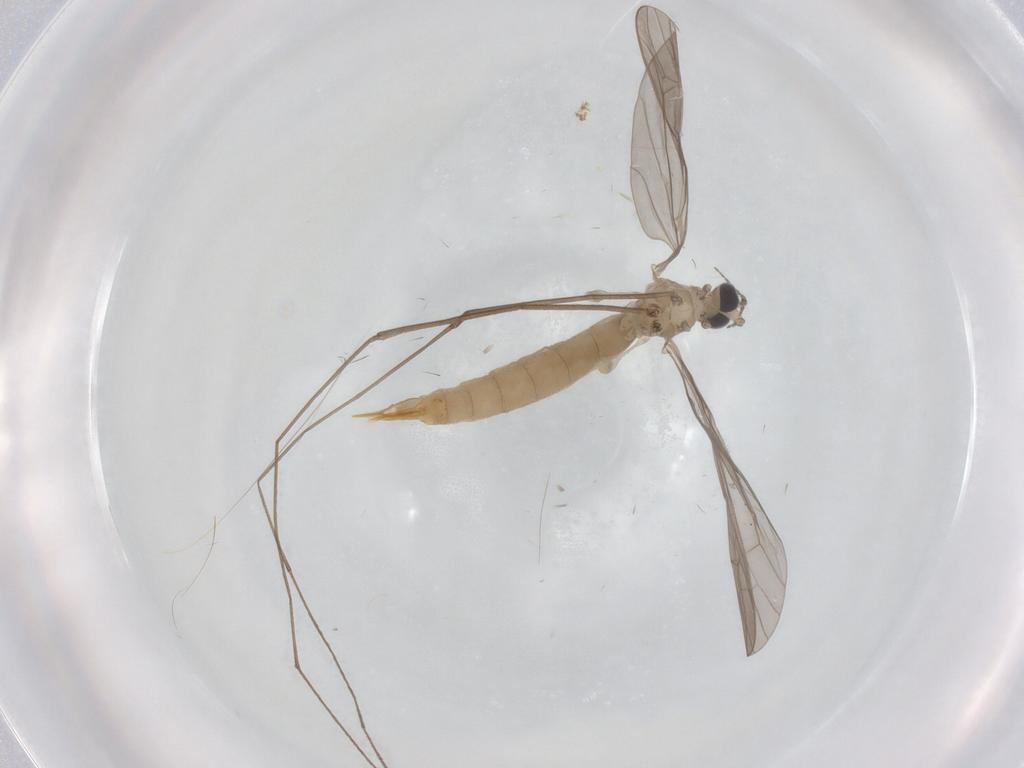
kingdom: Animalia
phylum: Arthropoda
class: Insecta
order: Diptera
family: Limoniidae
